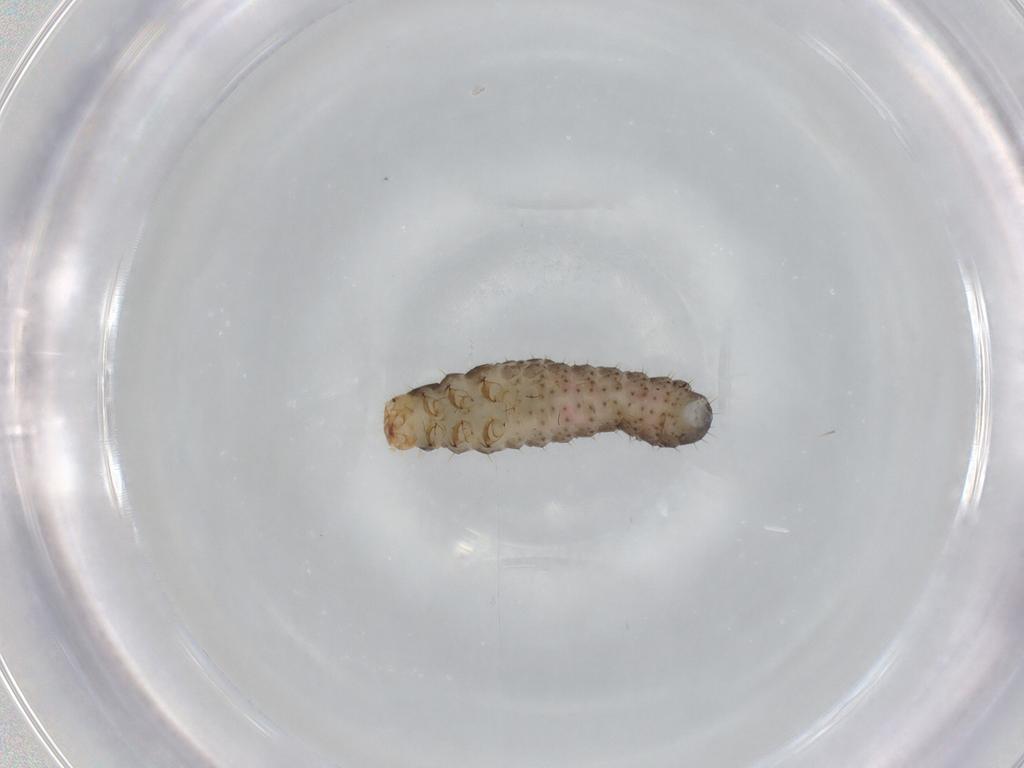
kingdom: Animalia
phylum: Arthropoda
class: Insecta
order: Coleoptera
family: Chrysomelidae
